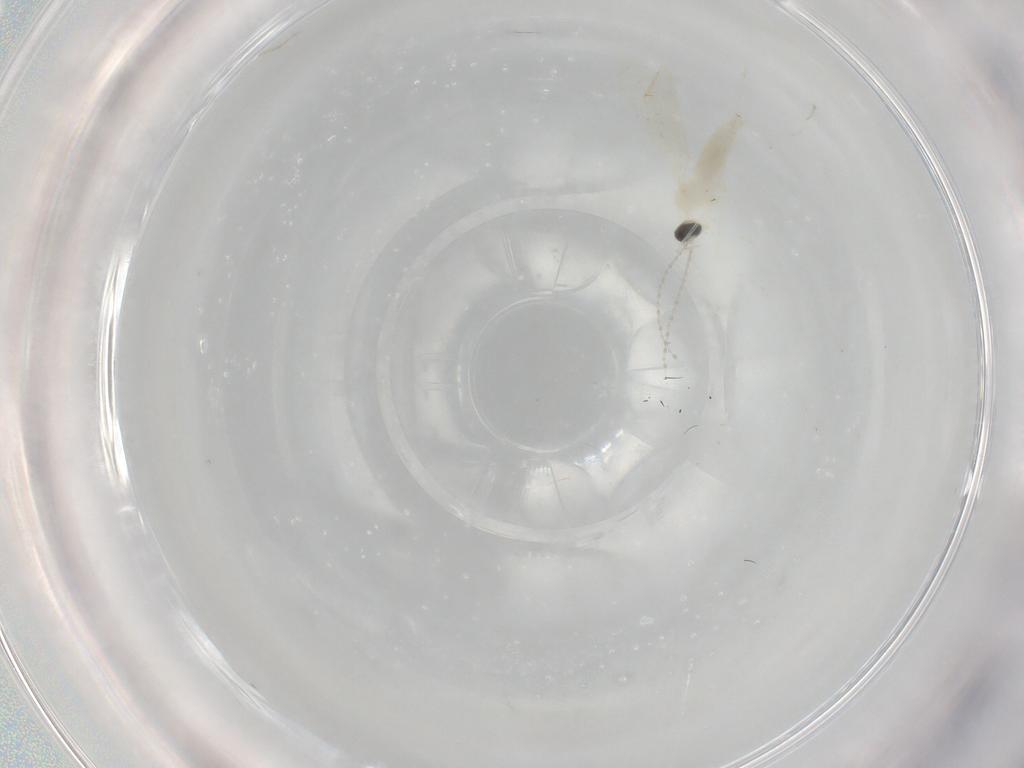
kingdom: Animalia
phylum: Arthropoda
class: Insecta
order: Diptera
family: Cecidomyiidae
